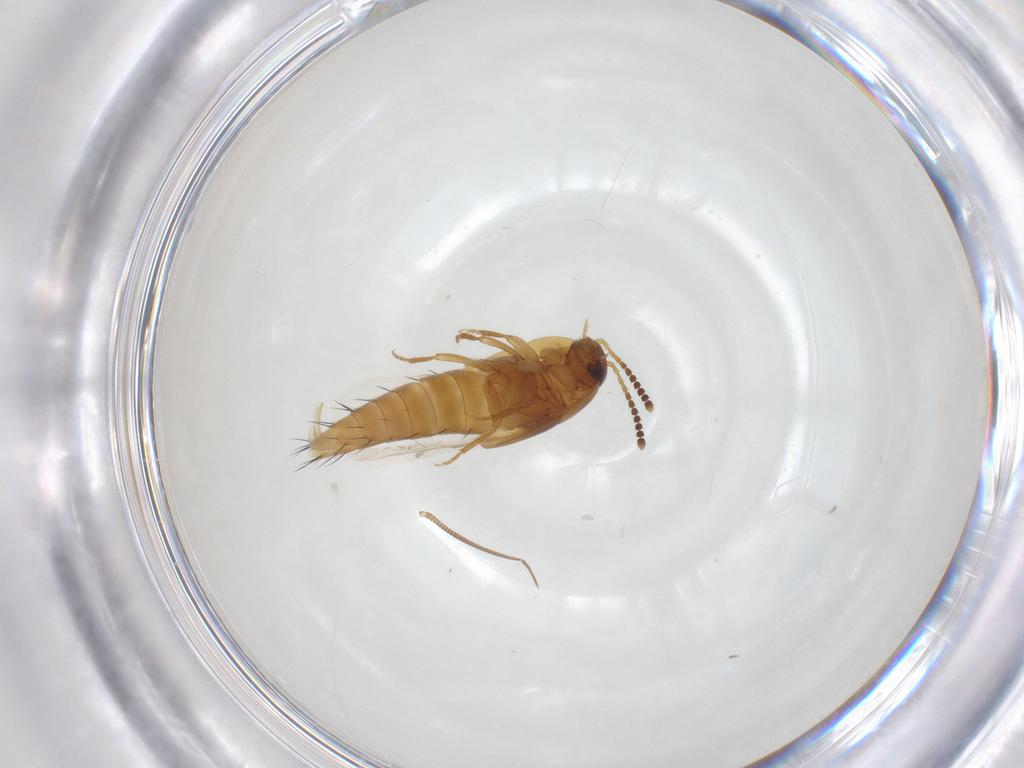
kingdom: Animalia
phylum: Arthropoda
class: Insecta
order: Coleoptera
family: Staphylinidae
